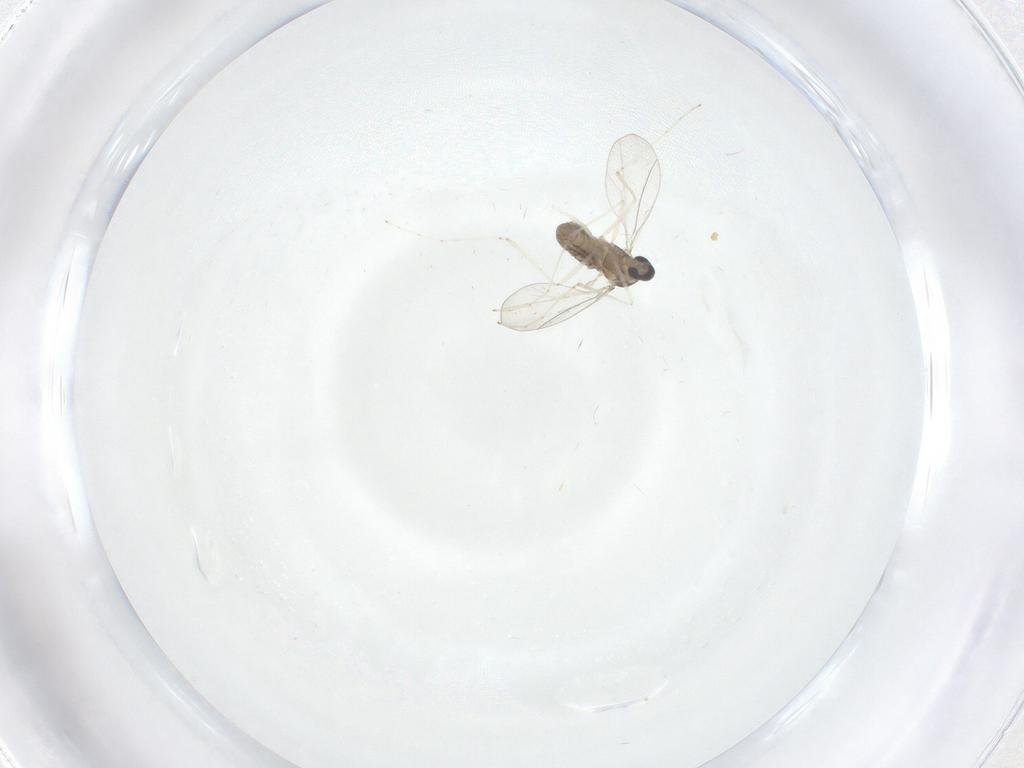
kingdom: Animalia
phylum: Arthropoda
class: Insecta
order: Diptera
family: Cecidomyiidae
